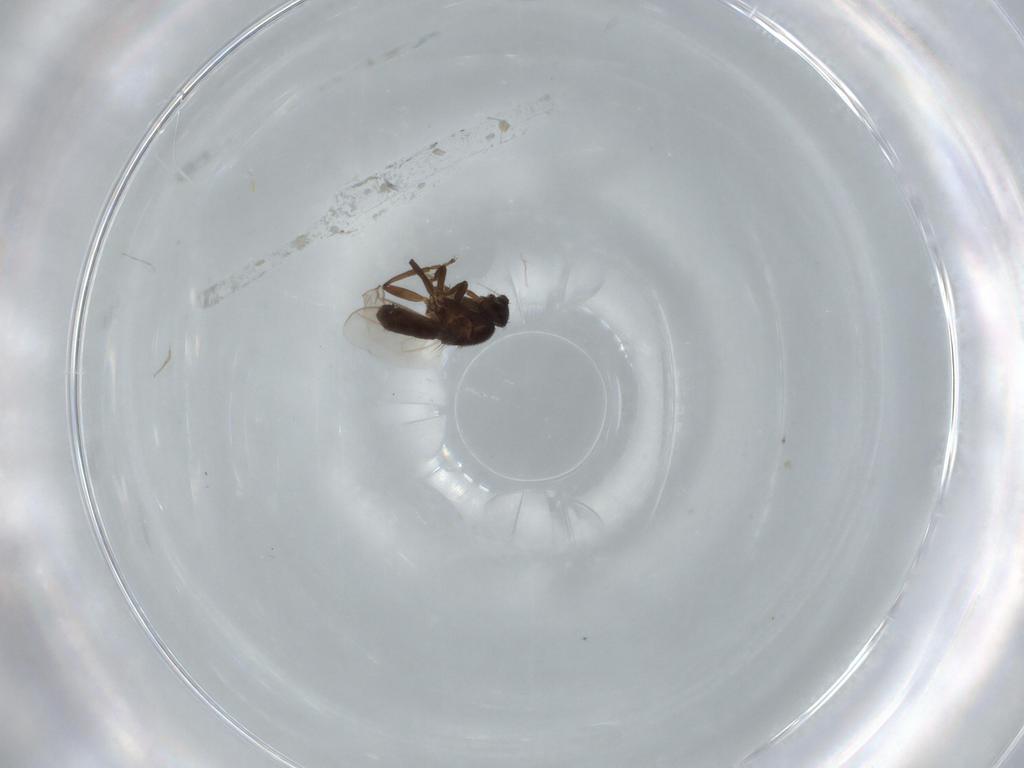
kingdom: Animalia
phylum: Arthropoda
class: Insecta
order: Diptera
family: Sphaeroceridae
